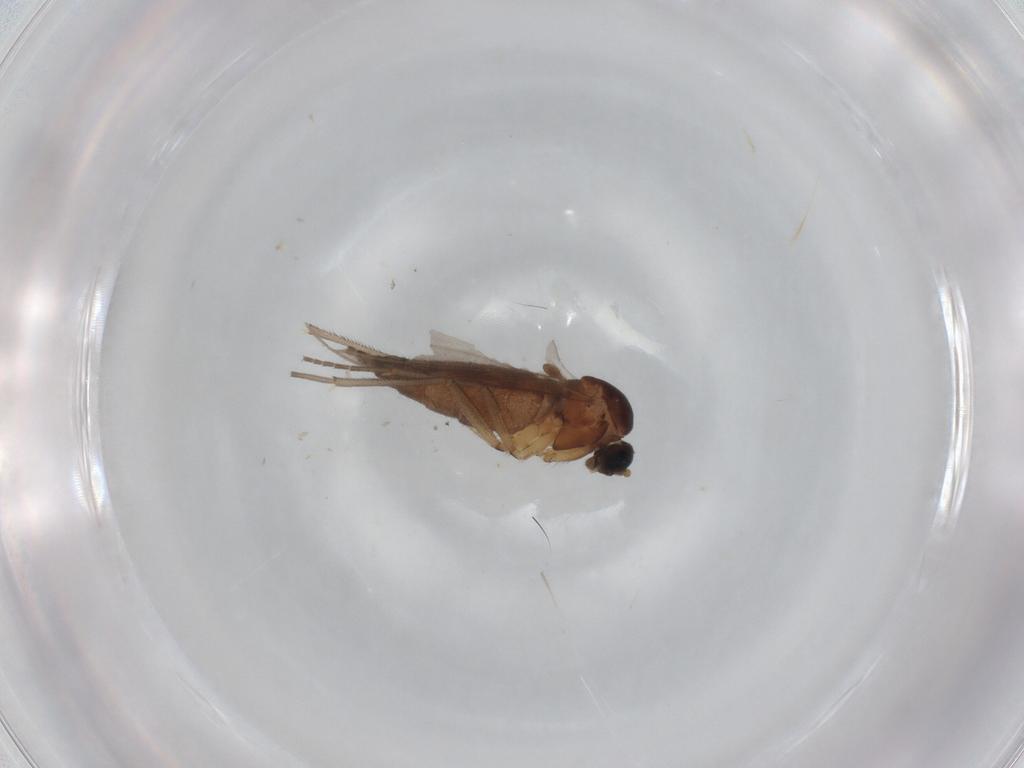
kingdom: Animalia
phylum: Arthropoda
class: Insecta
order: Diptera
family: Sciaridae
